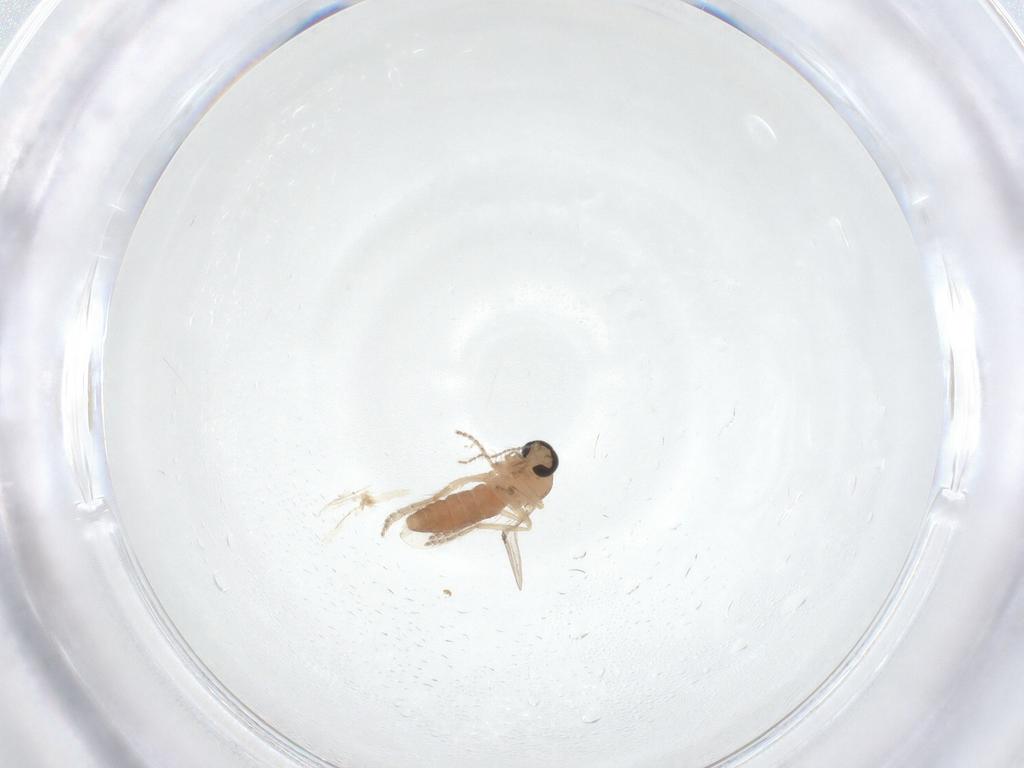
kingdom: Animalia
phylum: Arthropoda
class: Insecta
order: Diptera
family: Ceratopogonidae
